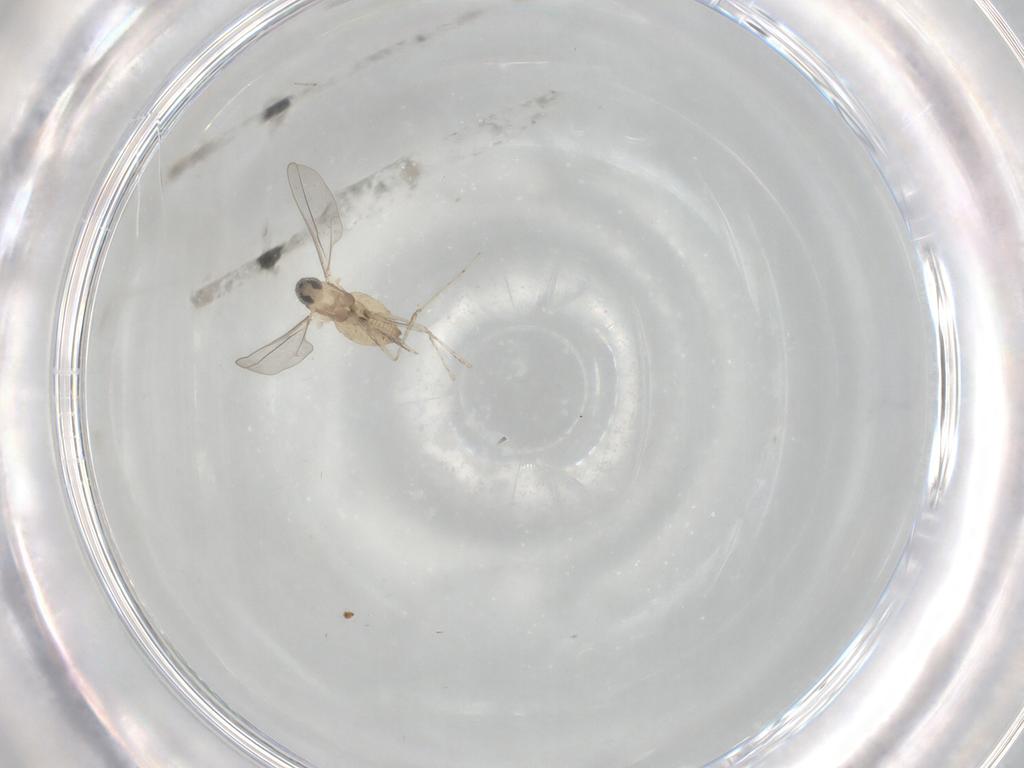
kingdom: Animalia
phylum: Arthropoda
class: Insecta
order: Diptera
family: Cecidomyiidae
